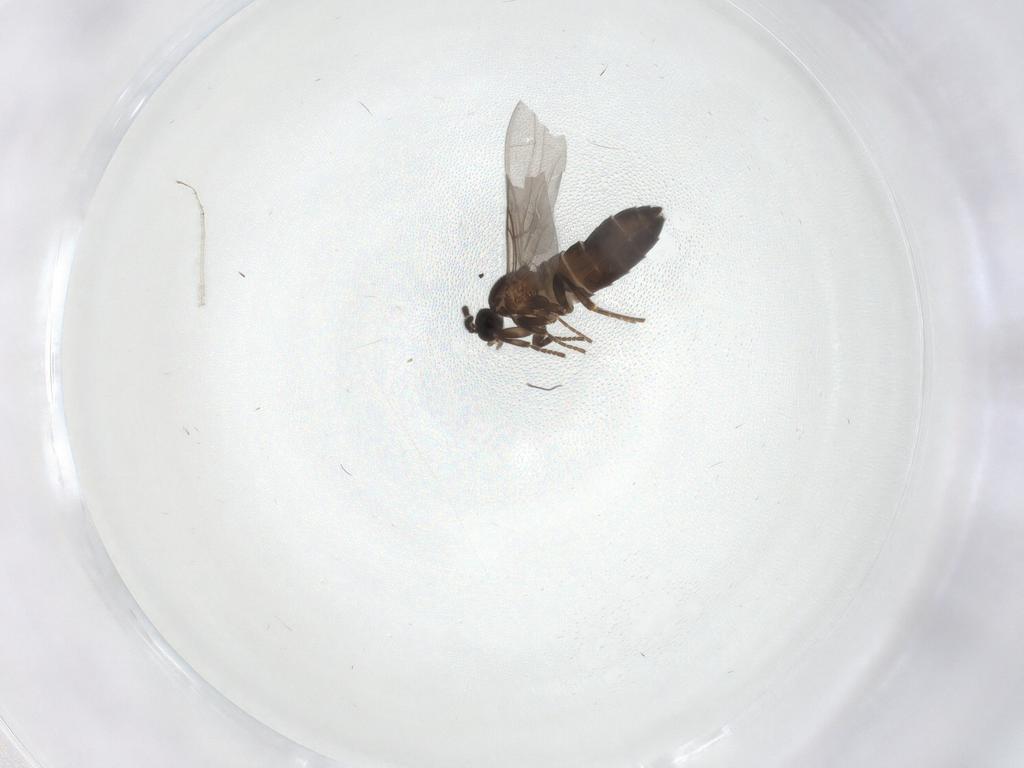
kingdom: Animalia
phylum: Arthropoda
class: Insecta
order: Diptera
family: Scatopsidae
